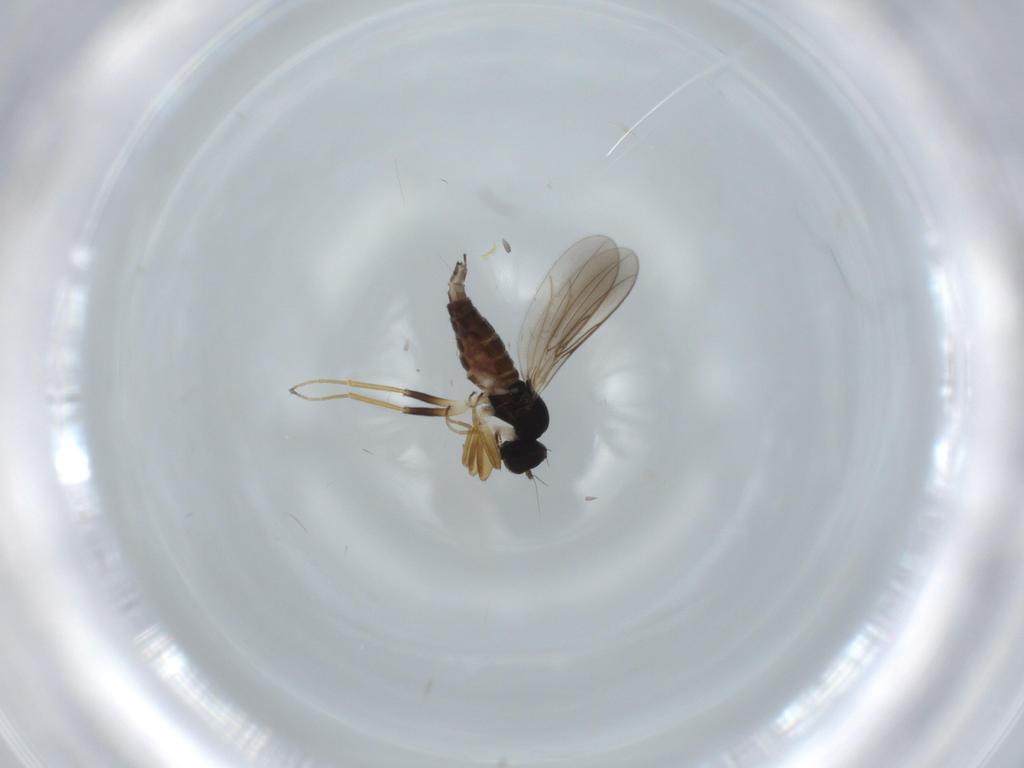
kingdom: Animalia
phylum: Arthropoda
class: Insecta
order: Diptera
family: Hybotidae
